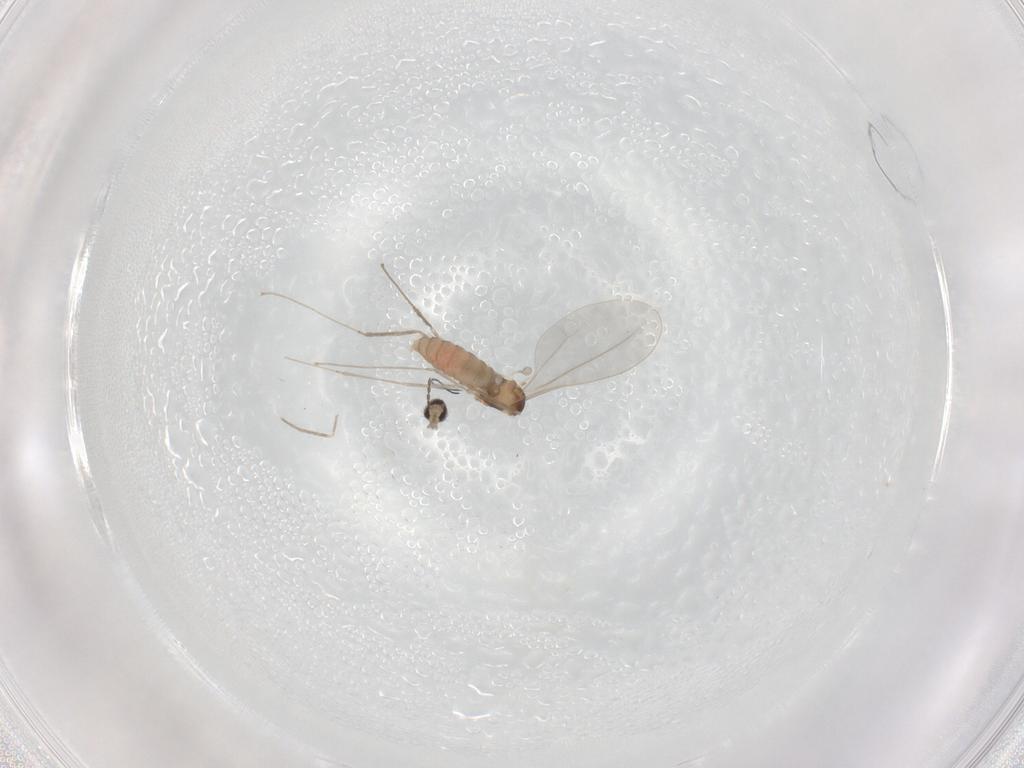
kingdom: Animalia
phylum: Arthropoda
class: Insecta
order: Diptera
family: Cecidomyiidae
